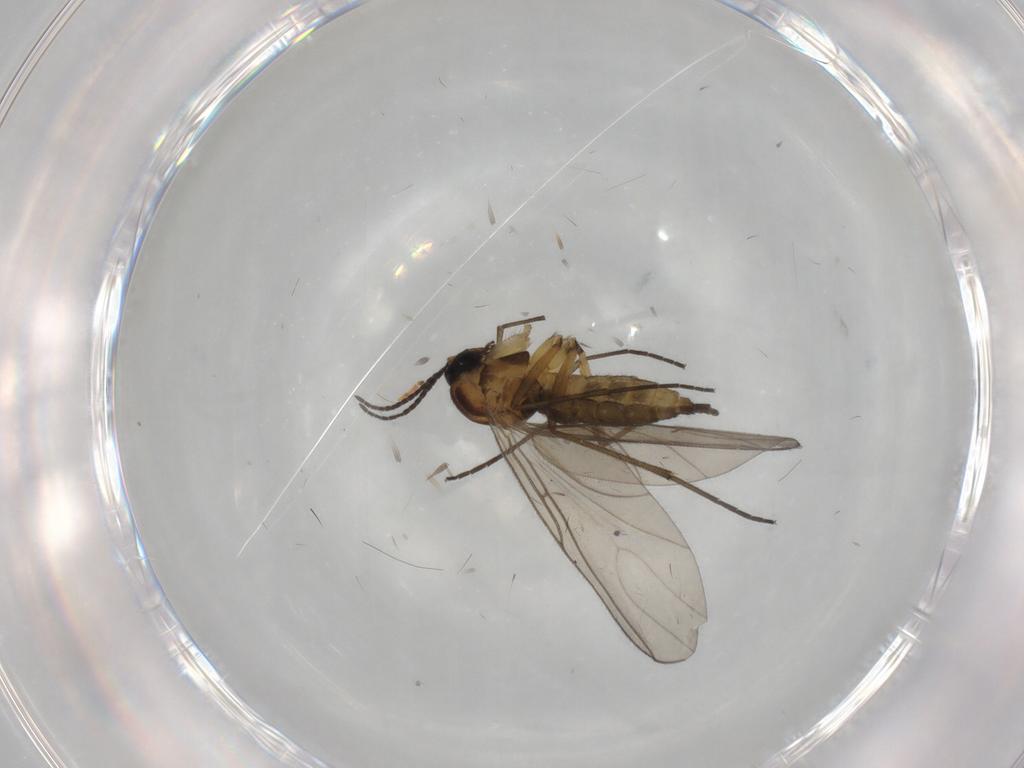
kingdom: Animalia
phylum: Arthropoda
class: Insecta
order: Diptera
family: Sciaridae
